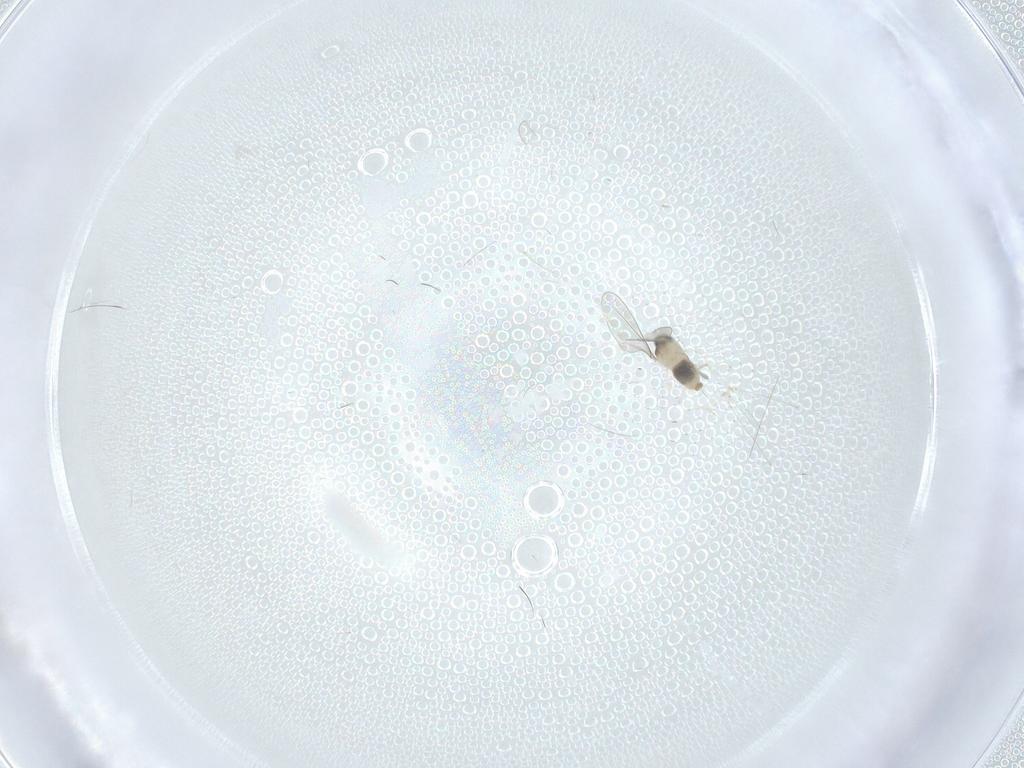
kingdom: Animalia
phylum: Arthropoda
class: Insecta
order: Diptera
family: Cecidomyiidae
